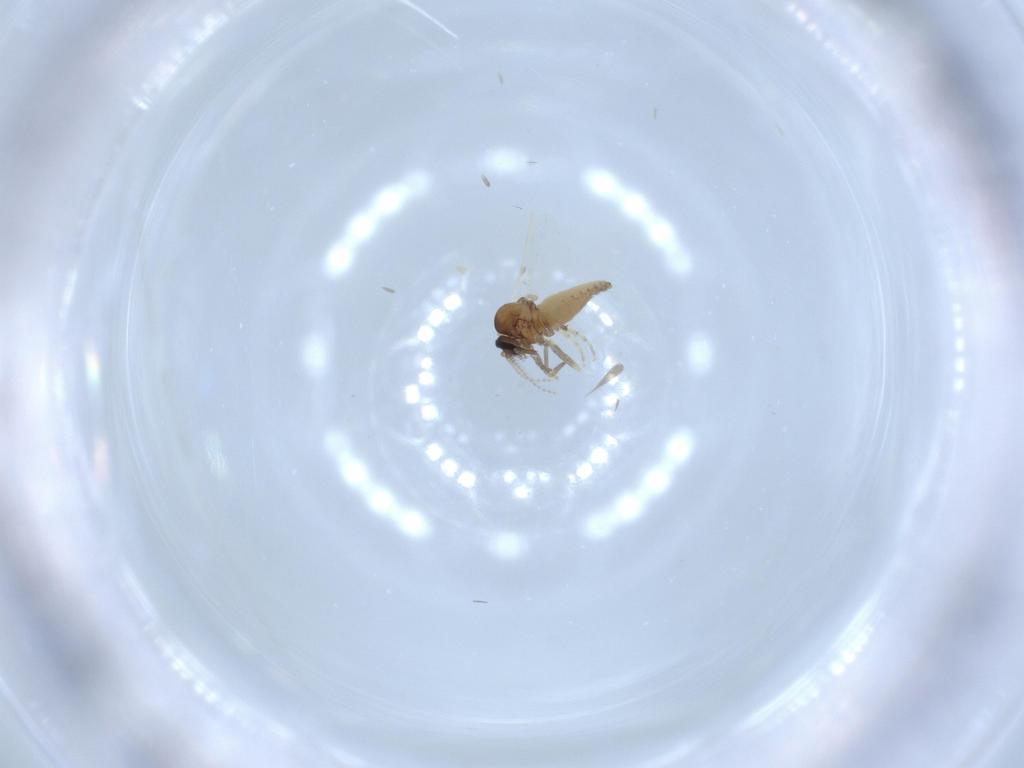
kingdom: Animalia
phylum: Arthropoda
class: Insecta
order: Diptera
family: Ceratopogonidae
